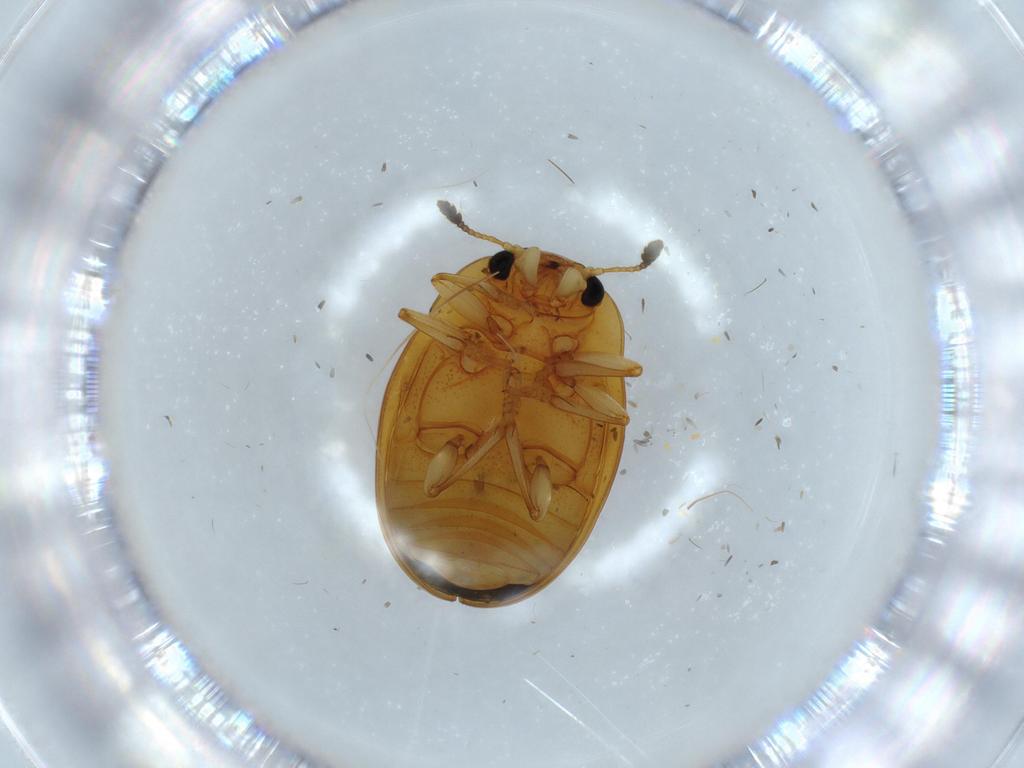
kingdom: Animalia
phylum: Arthropoda
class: Insecta
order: Coleoptera
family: Erotylidae
